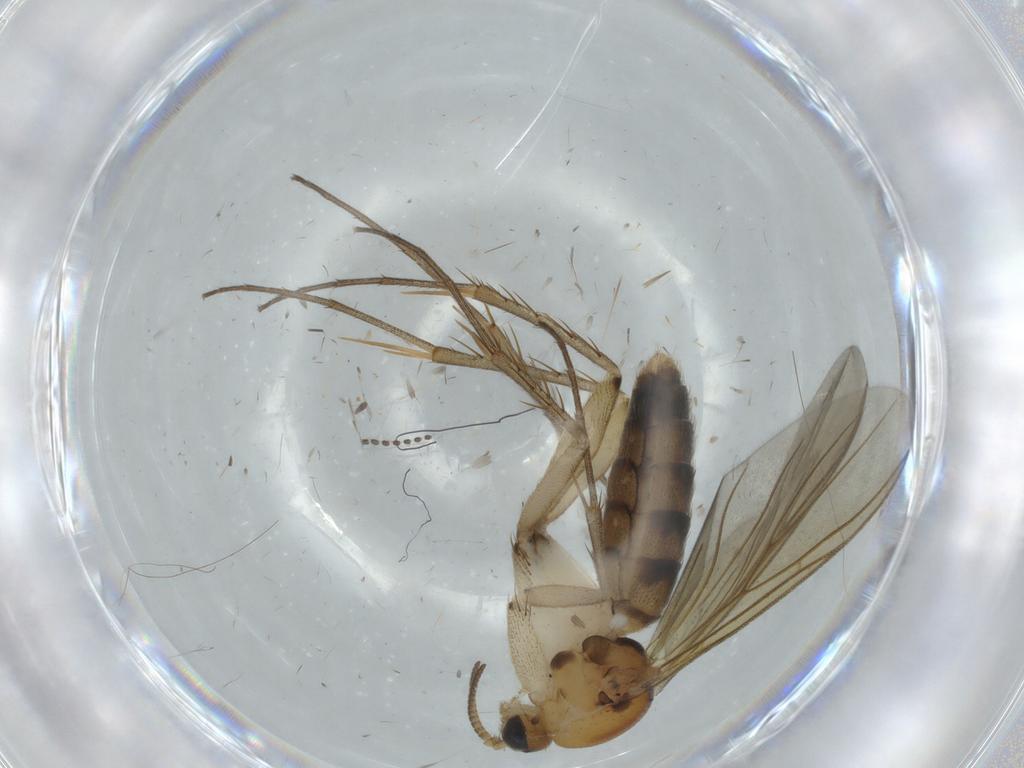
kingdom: Animalia
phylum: Arthropoda
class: Insecta
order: Diptera
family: Mycetophilidae
